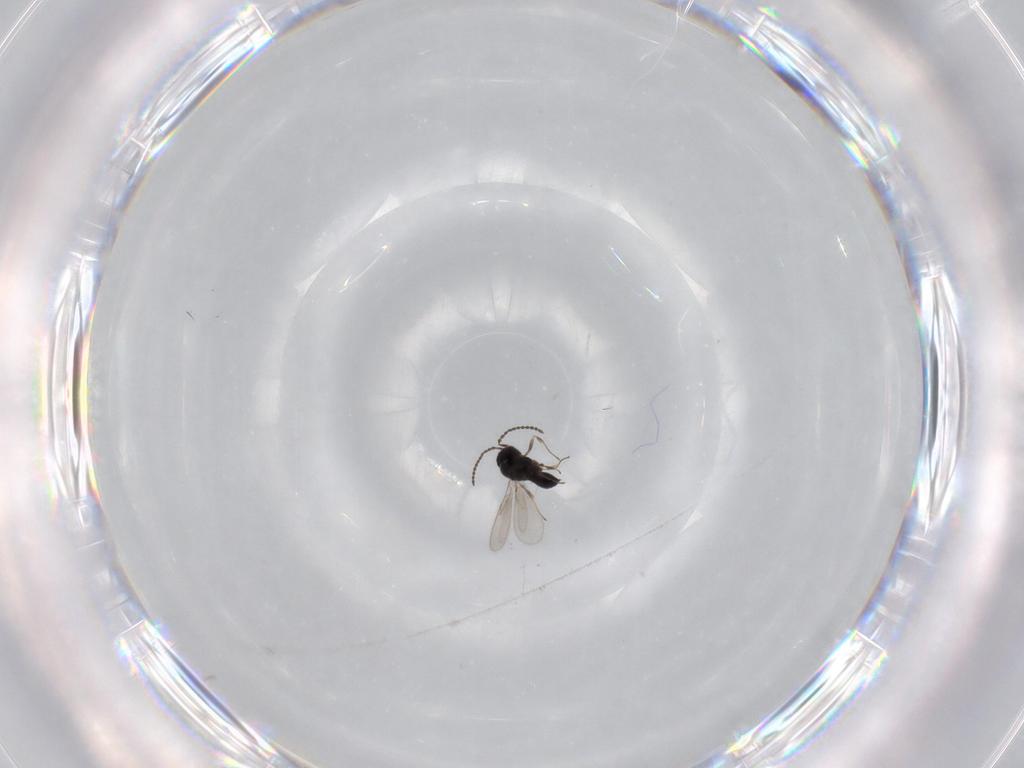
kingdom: Animalia
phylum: Arthropoda
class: Insecta
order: Hymenoptera
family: Scelionidae
